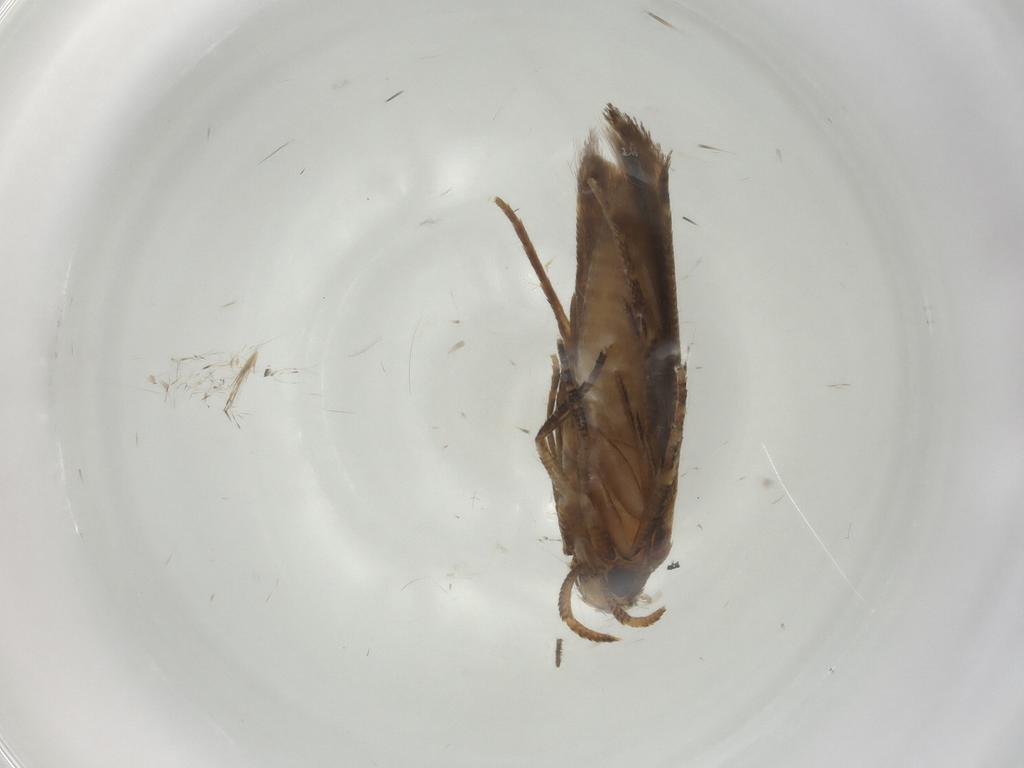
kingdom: Animalia
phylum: Arthropoda
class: Insecta
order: Lepidoptera
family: Cosmopterigidae
